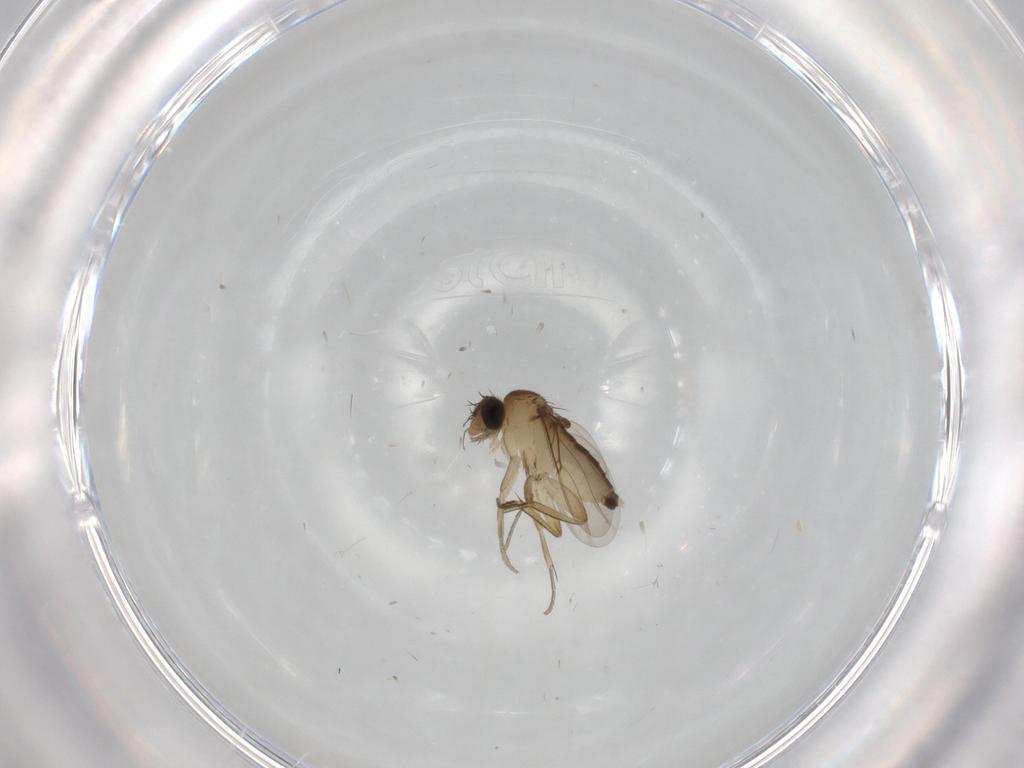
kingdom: Animalia
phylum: Arthropoda
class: Insecta
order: Diptera
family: Phoridae
